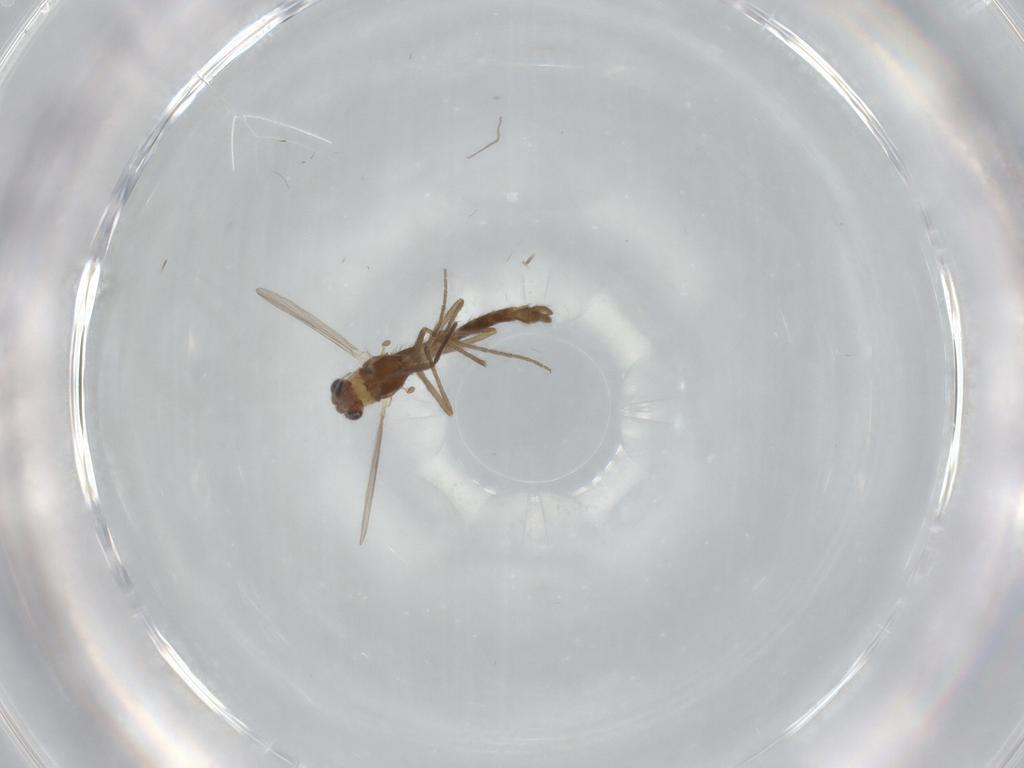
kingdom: Animalia
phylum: Arthropoda
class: Insecta
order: Diptera
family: Chironomidae
